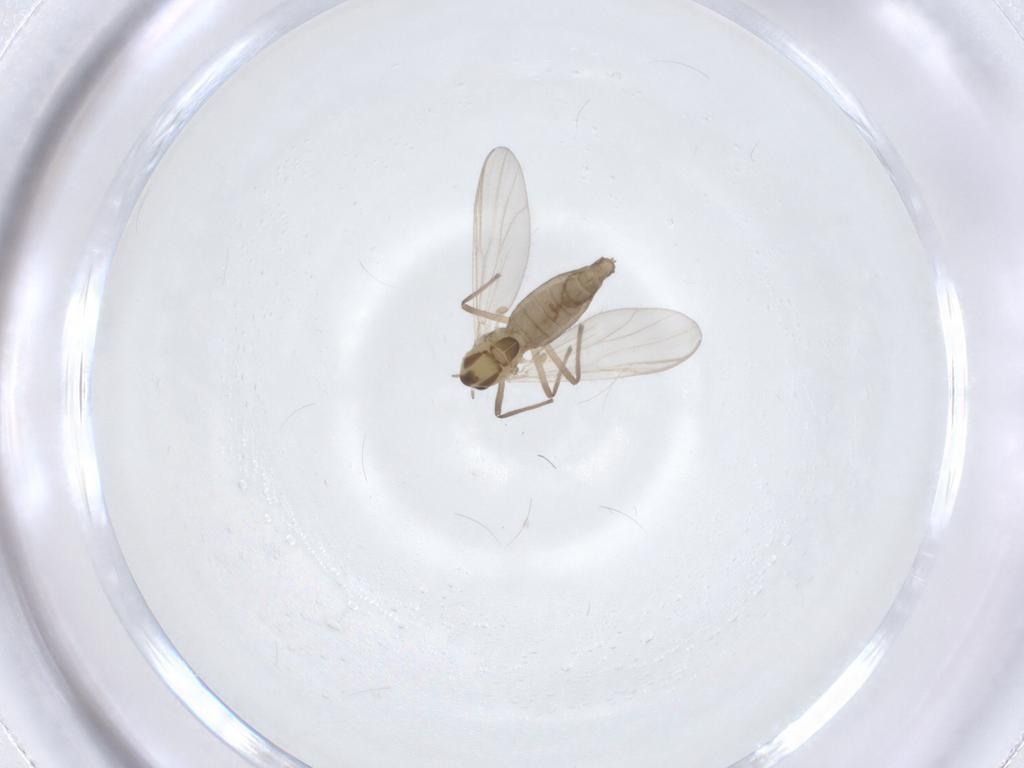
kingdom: Animalia
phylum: Arthropoda
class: Insecta
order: Diptera
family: Chironomidae
